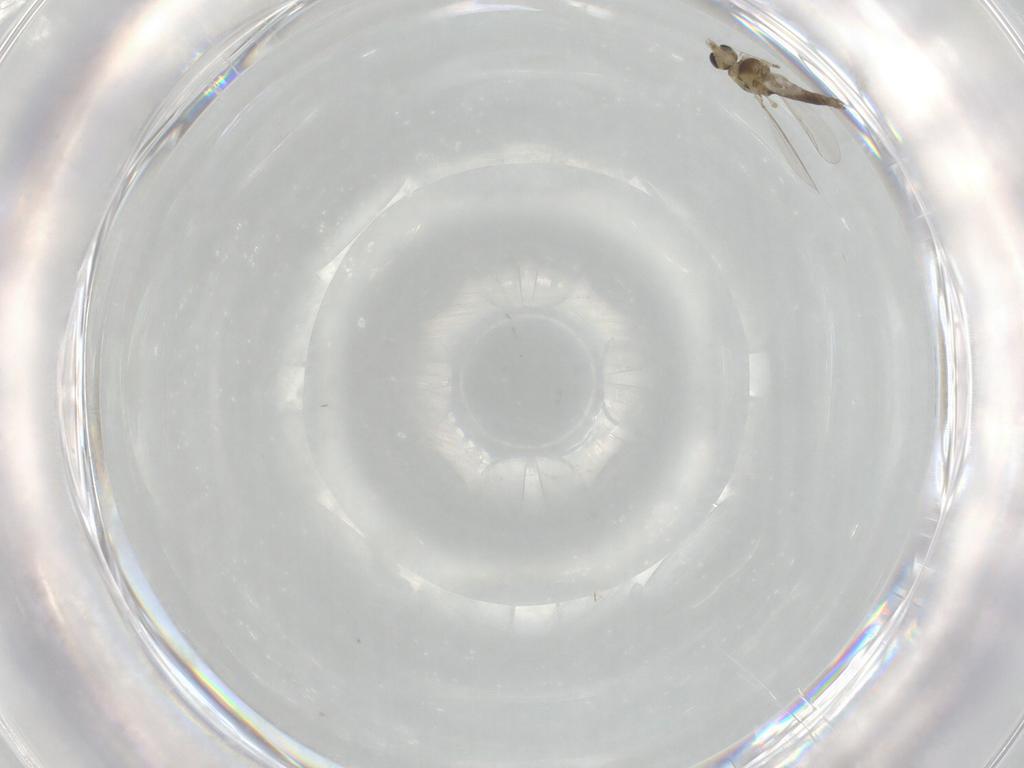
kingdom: Animalia
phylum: Arthropoda
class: Insecta
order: Diptera
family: Chironomidae
